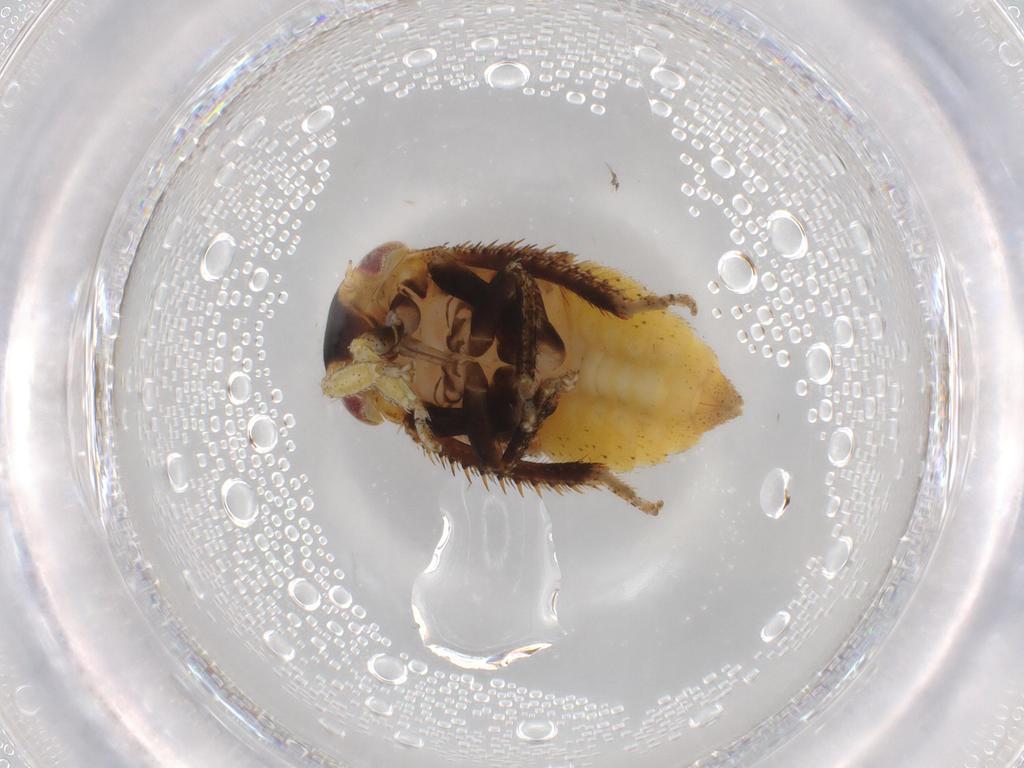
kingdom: Animalia
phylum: Arthropoda
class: Insecta
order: Hemiptera
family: Cicadellidae
